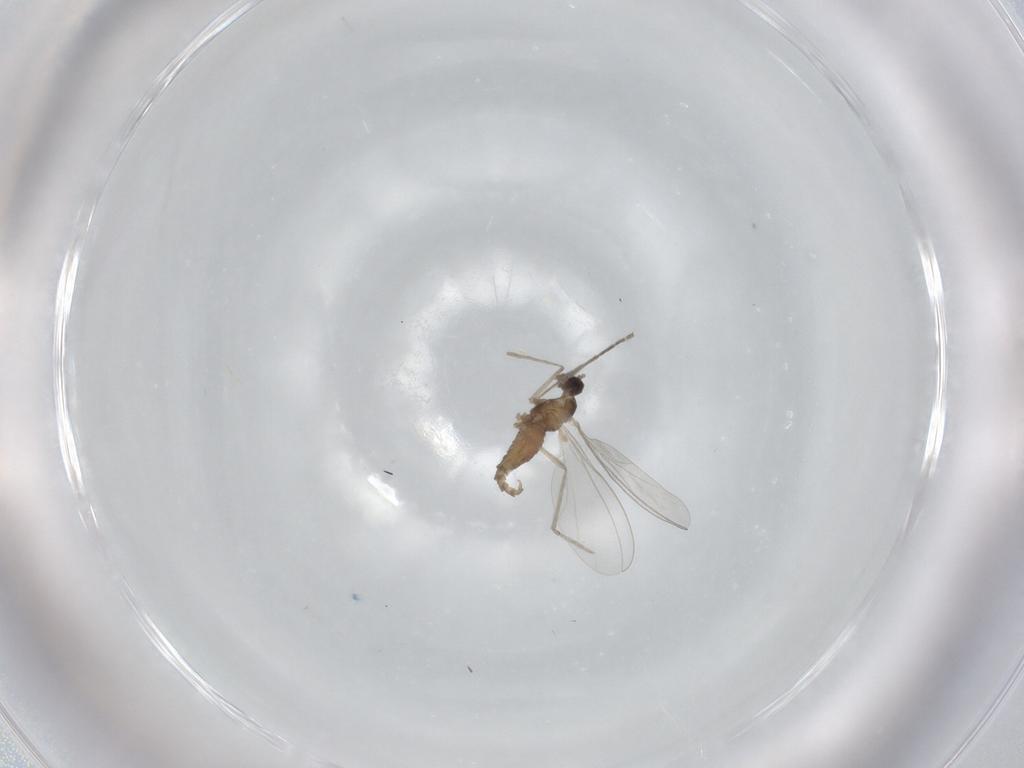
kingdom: Animalia
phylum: Arthropoda
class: Insecta
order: Diptera
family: Cecidomyiidae
